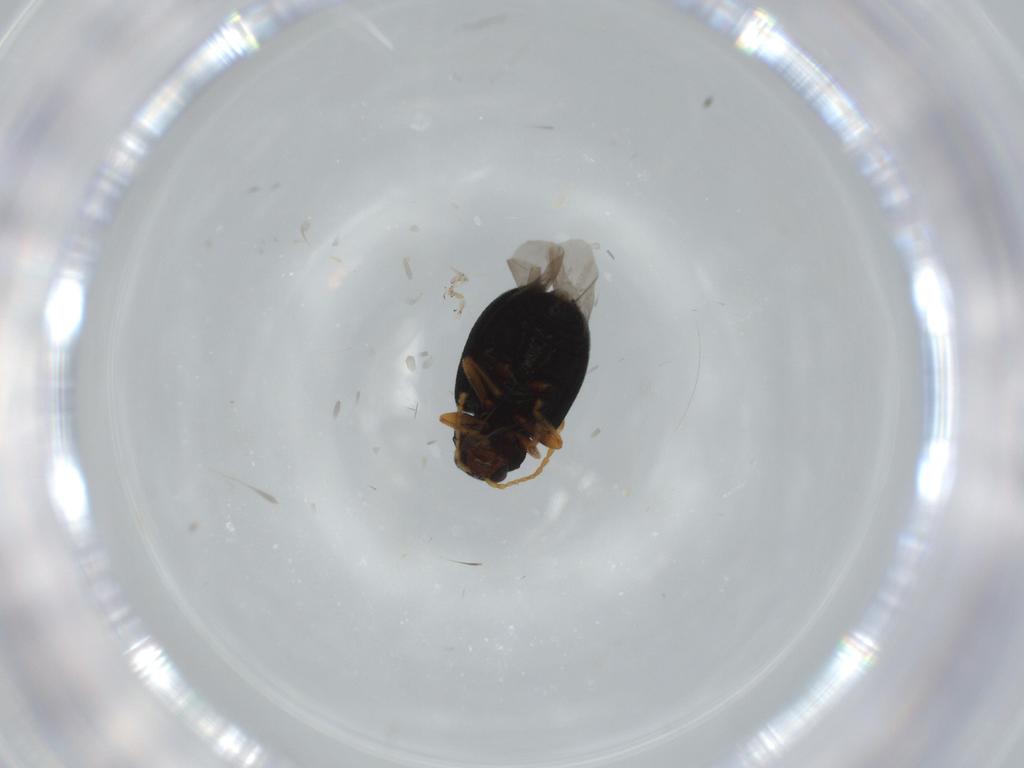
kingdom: Animalia
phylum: Arthropoda
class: Insecta
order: Coleoptera
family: Chrysomelidae
